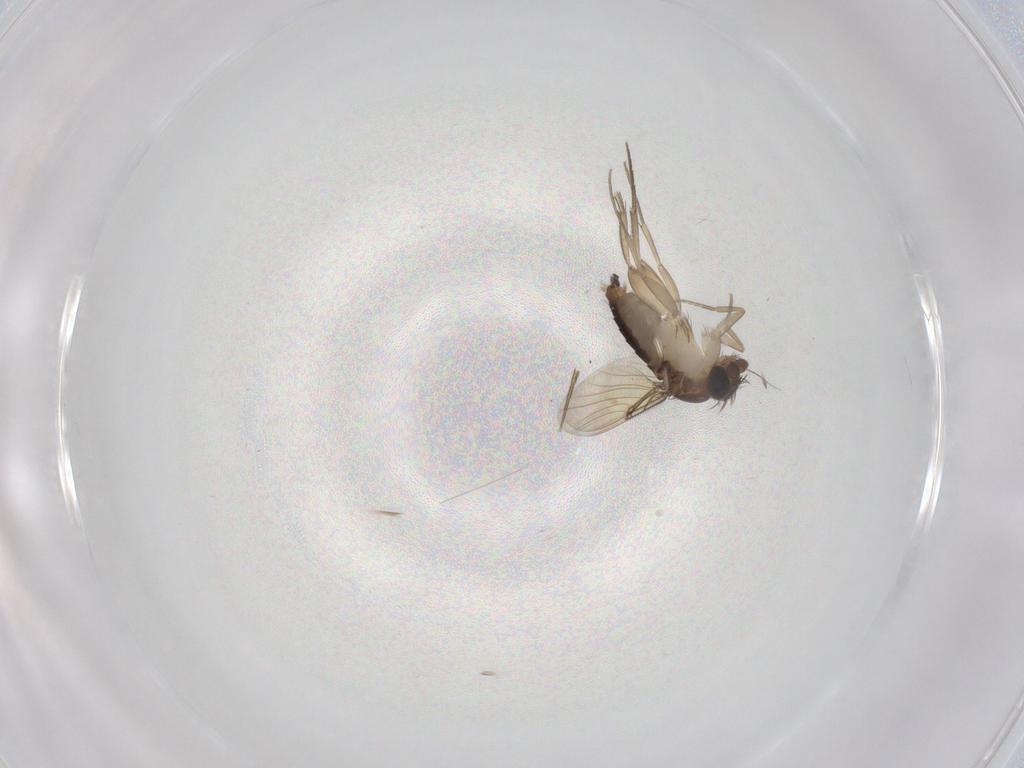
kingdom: Animalia
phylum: Arthropoda
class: Insecta
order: Diptera
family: Phoridae
